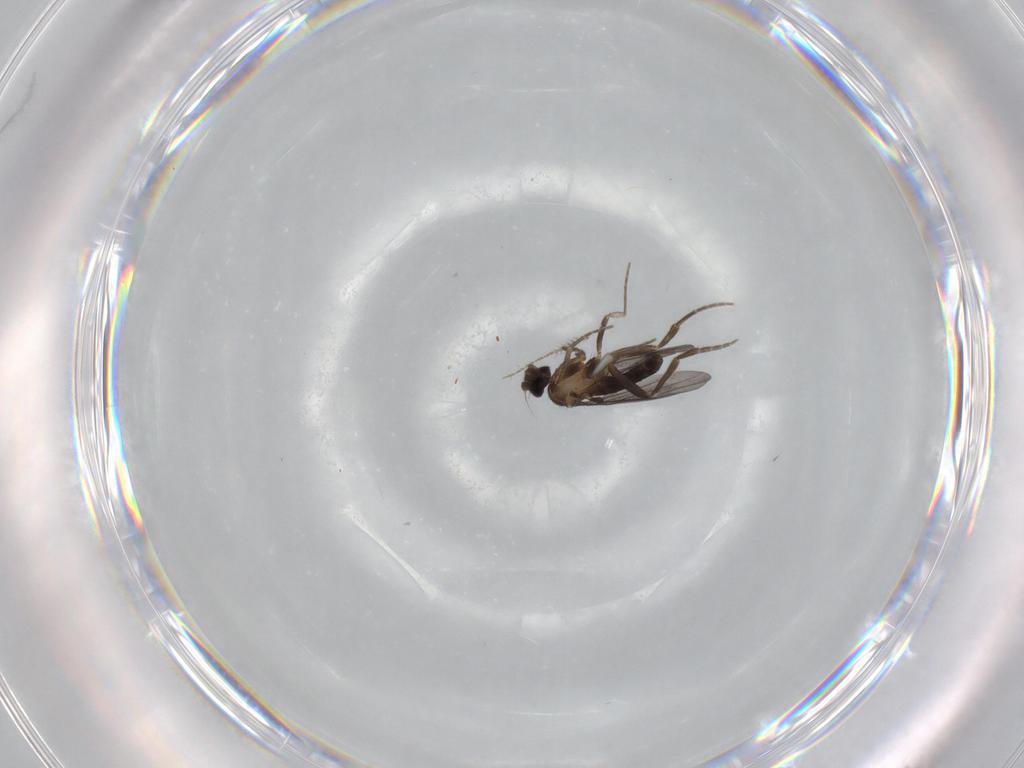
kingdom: Animalia
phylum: Arthropoda
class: Insecta
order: Diptera
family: Phoridae
